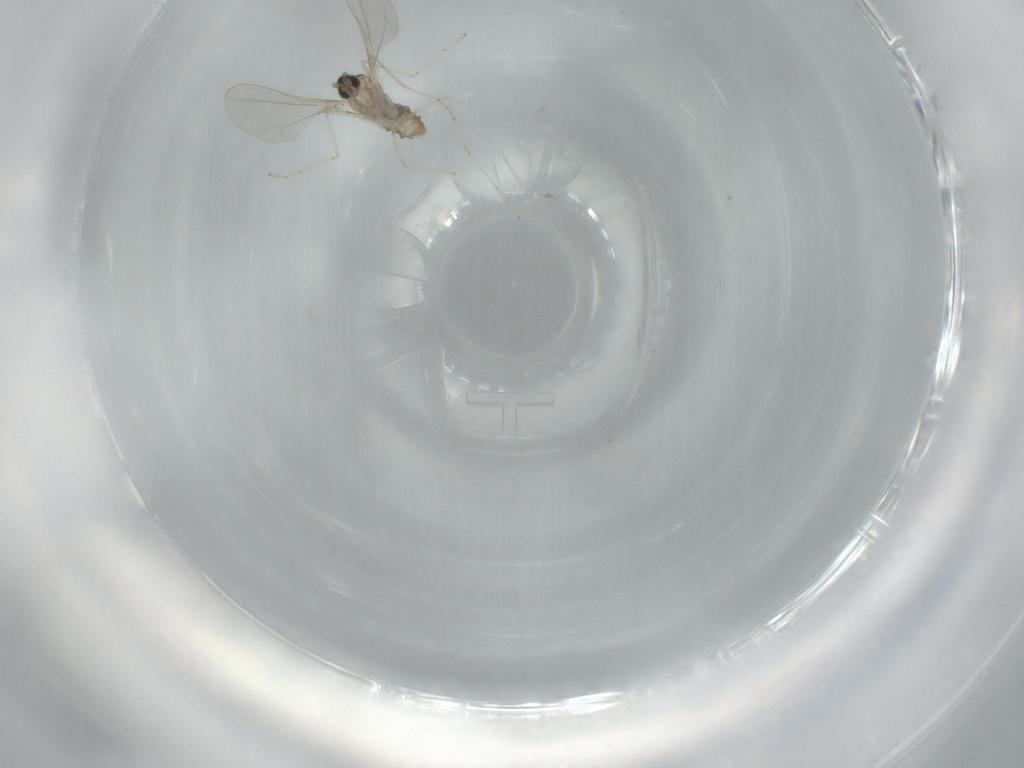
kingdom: Animalia
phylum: Arthropoda
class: Insecta
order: Diptera
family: Cecidomyiidae
